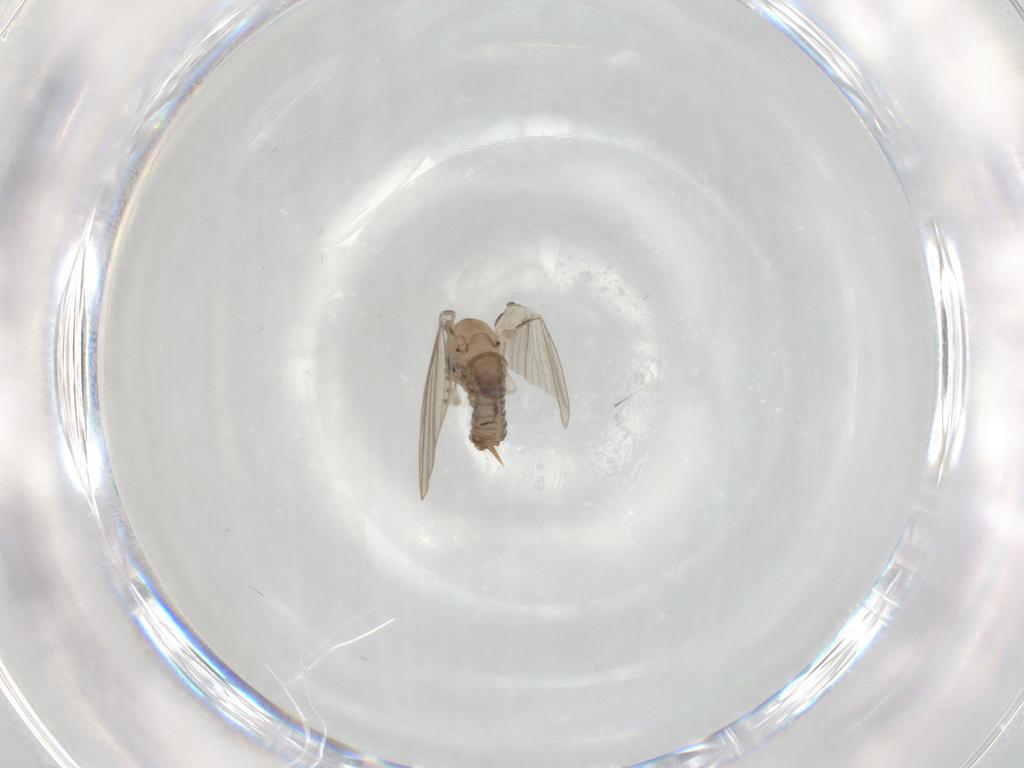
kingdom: Animalia
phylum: Arthropoda
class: Insecta
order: Diptera
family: Psychodidae
